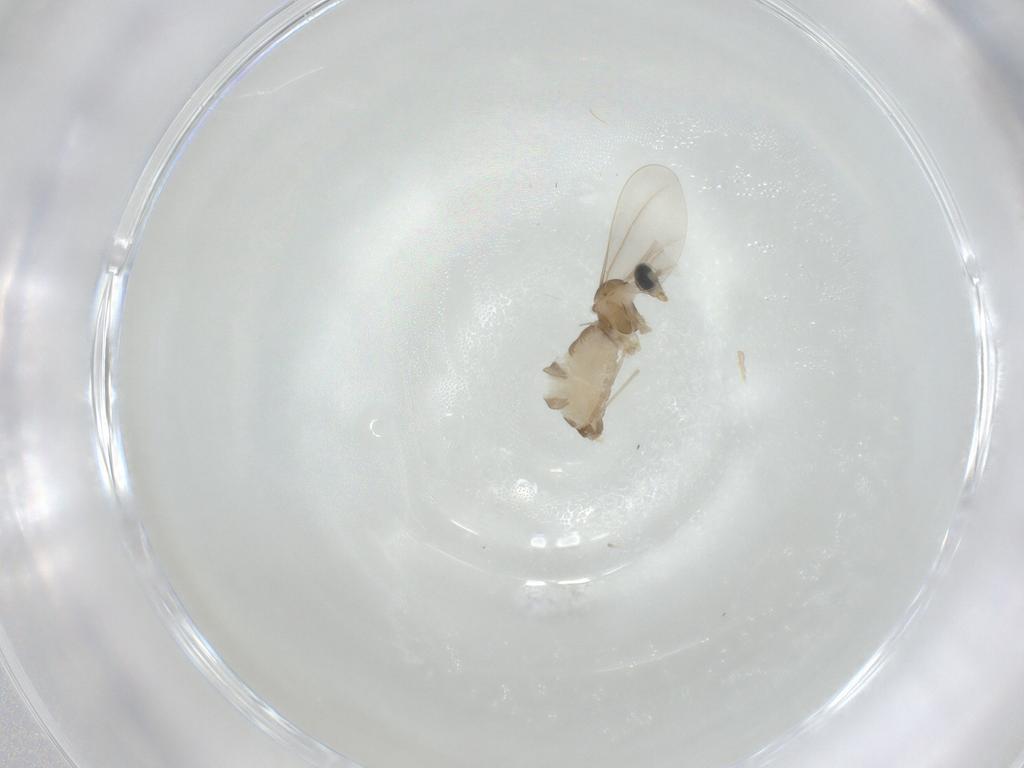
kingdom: Animalia
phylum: Arthropoda
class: Insecta
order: Diptera
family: Cecidomyiidae
